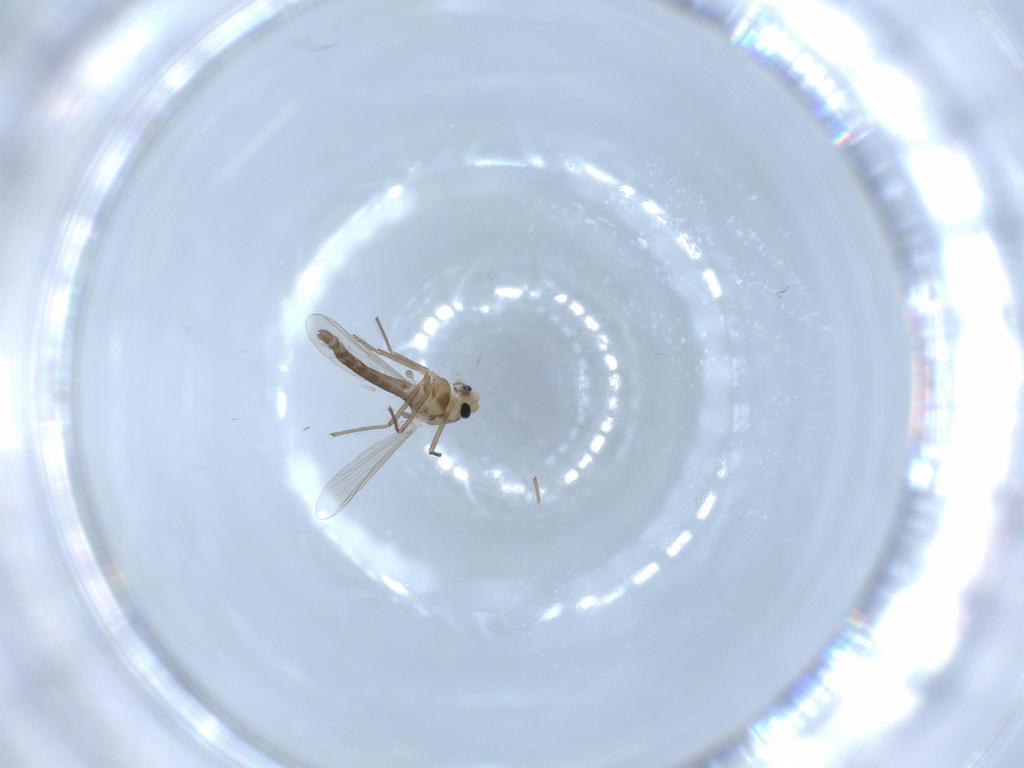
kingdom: Animalia
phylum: Arthropoda
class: Insecta
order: Diptera
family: Chironomidae
